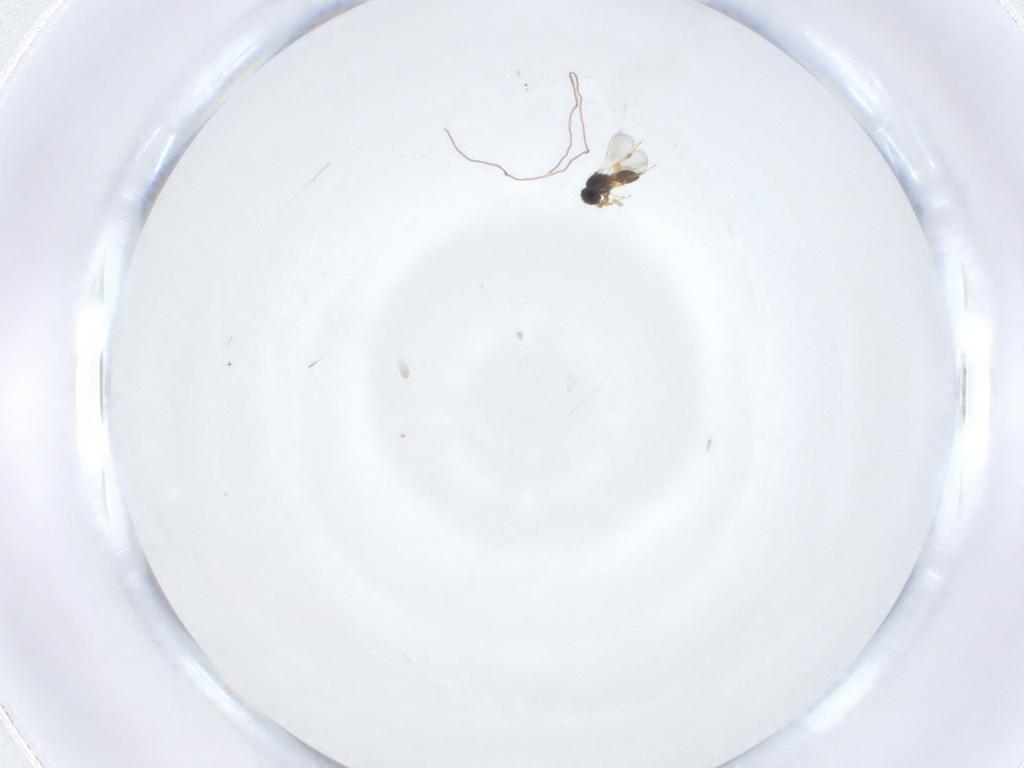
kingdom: Animalia
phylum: Arthropoda
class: Insecta
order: Hymenoptera
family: Platygastridae
